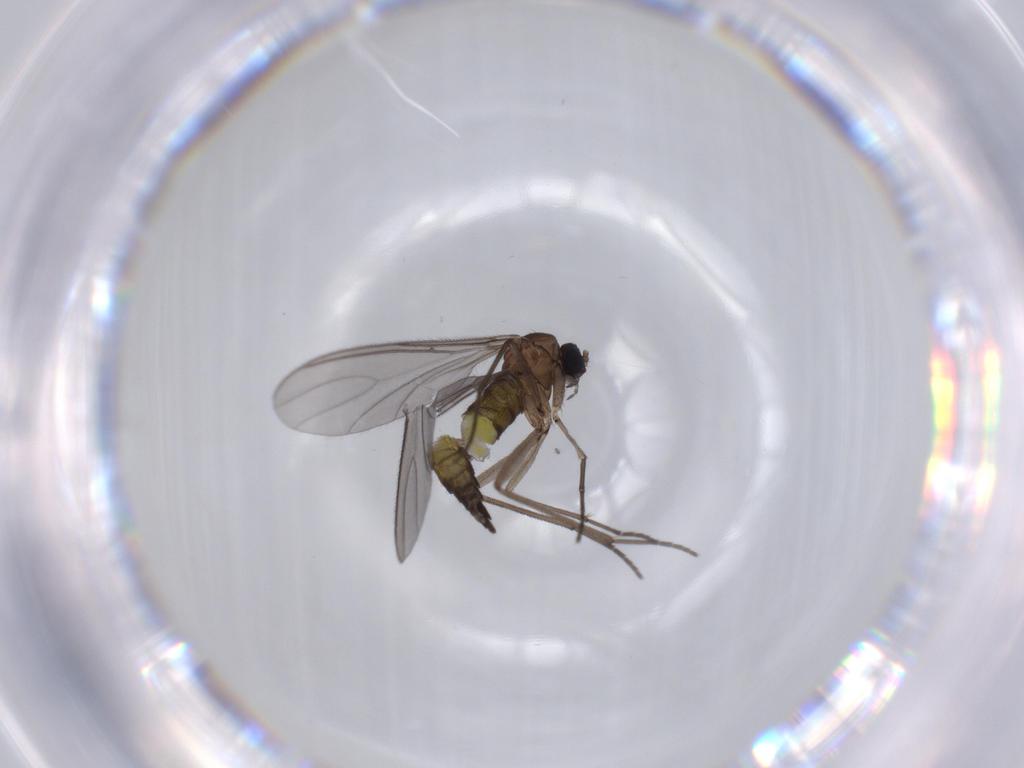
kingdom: Animalia
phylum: Arthropoda
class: Insecta
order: Diptera
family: Sciaridae
